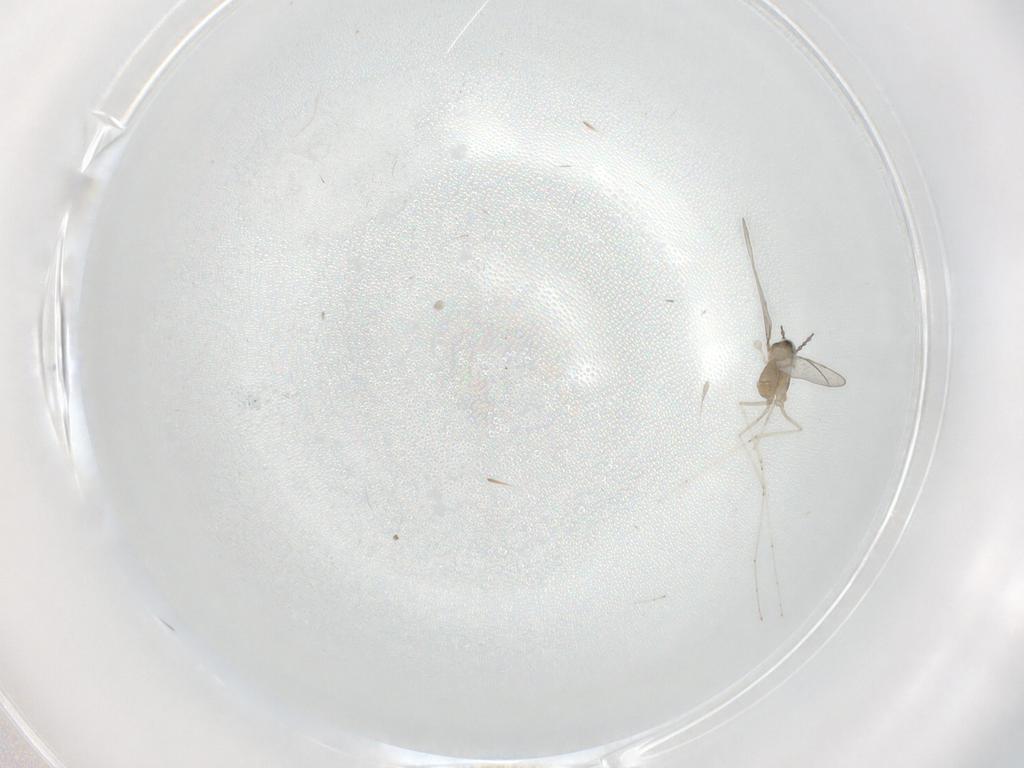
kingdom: Animalia
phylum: Arthropoda
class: Insecta
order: Diptera
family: Cecidomyiidae
